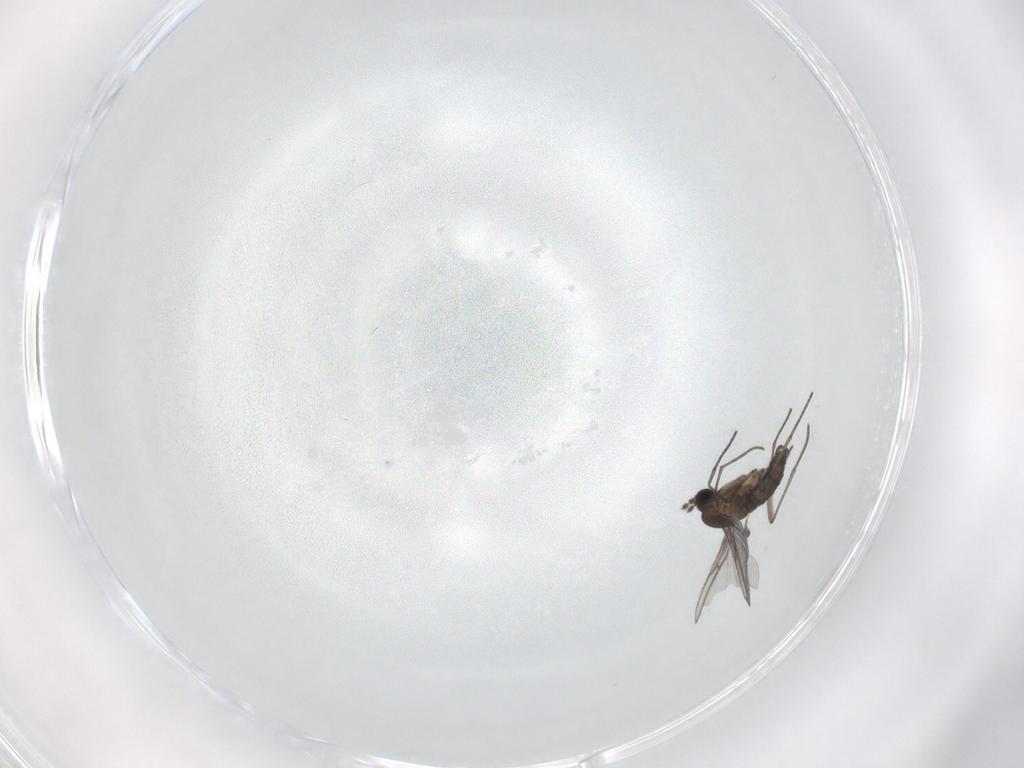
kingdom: Animalia
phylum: Arthropoda
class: Insecta
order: Diptera
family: Sciaridae
